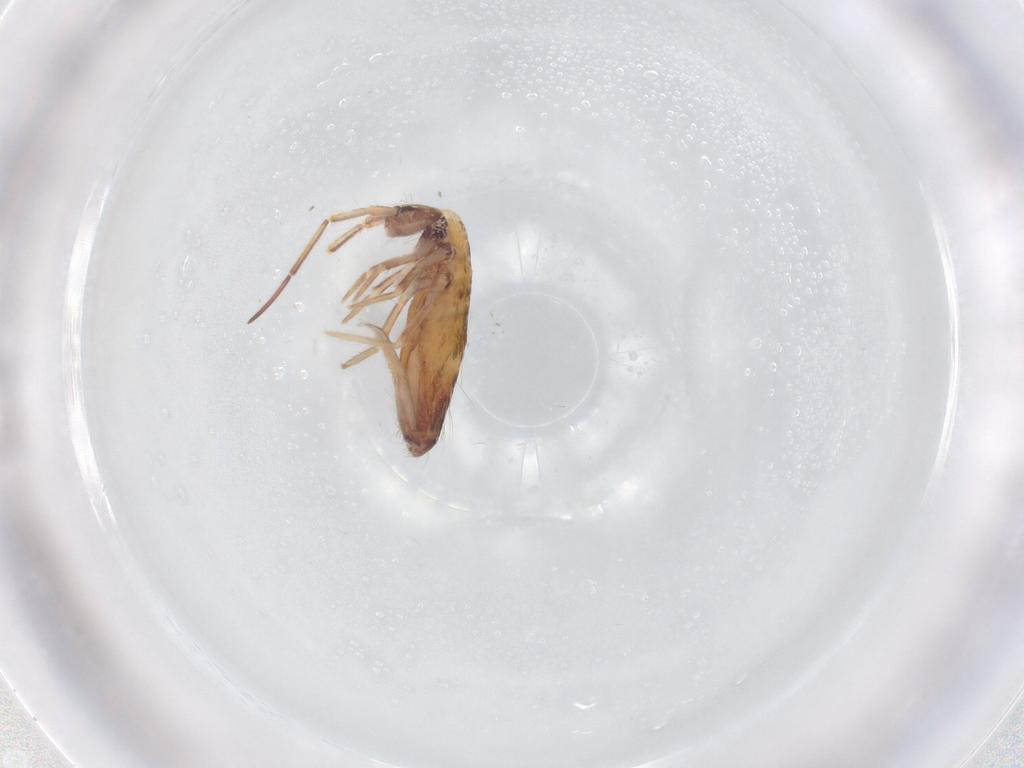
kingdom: Animalia
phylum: Arthropoda
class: Collembola
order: Entomobryomorpha
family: Entomobryidae
